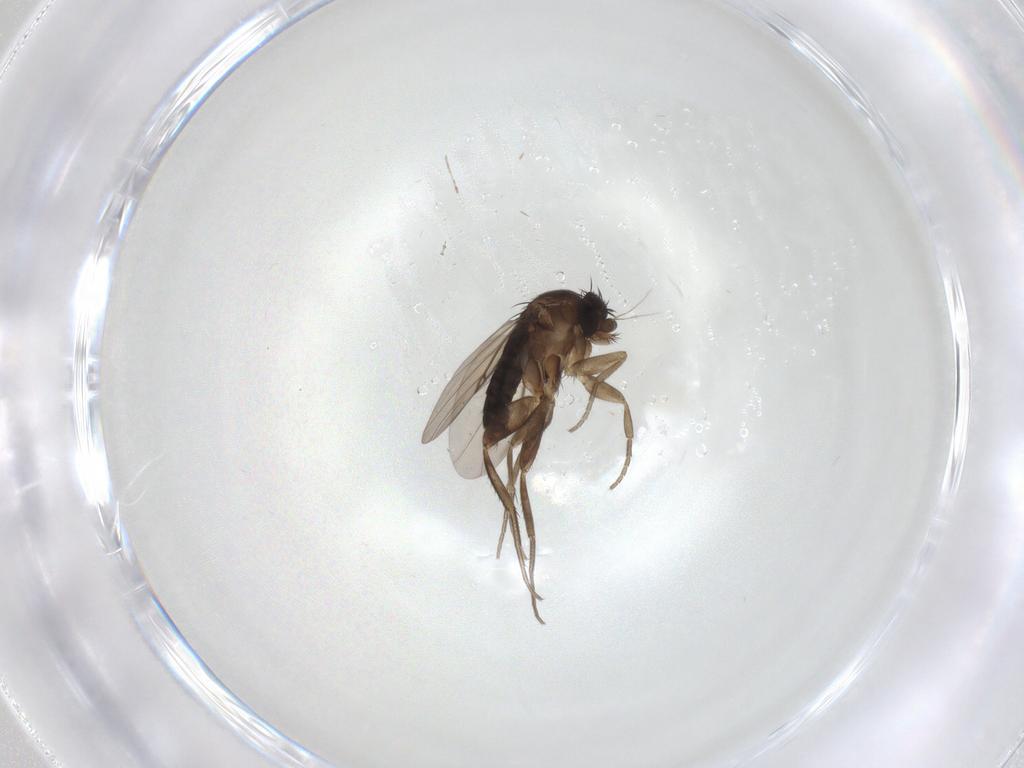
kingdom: Animalia
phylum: Arthropoda
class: Insecta
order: Diptera
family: Phoridae
